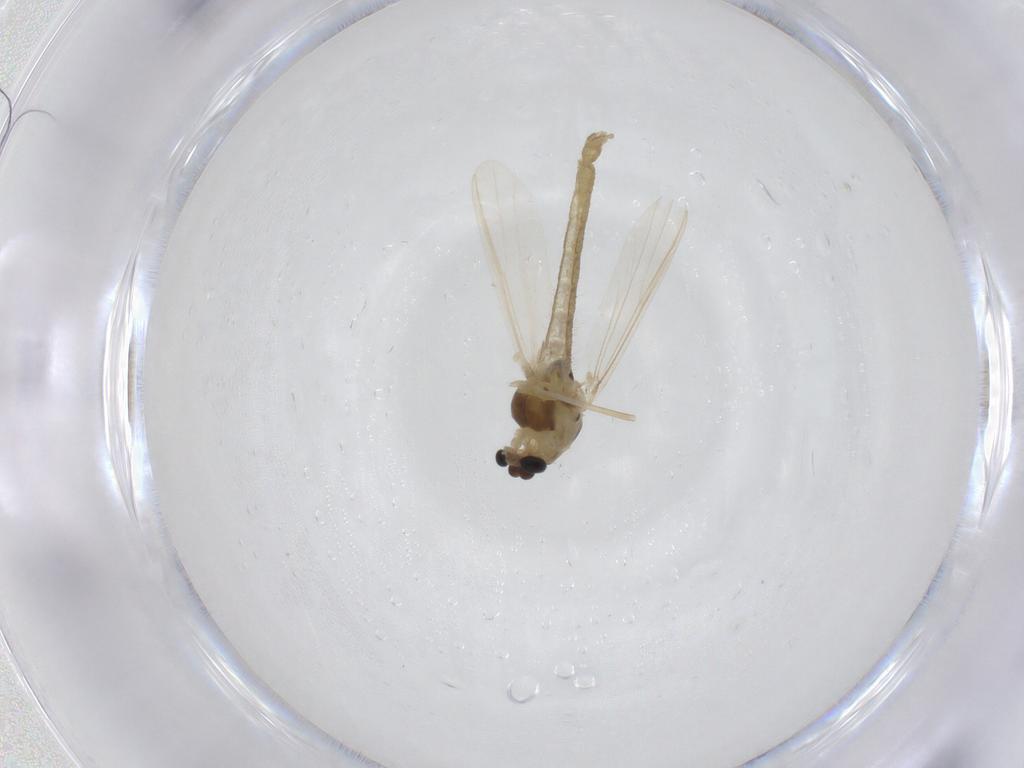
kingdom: Animalia
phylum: Arthropoda
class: Insecta
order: Diptera
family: Chironomidae
